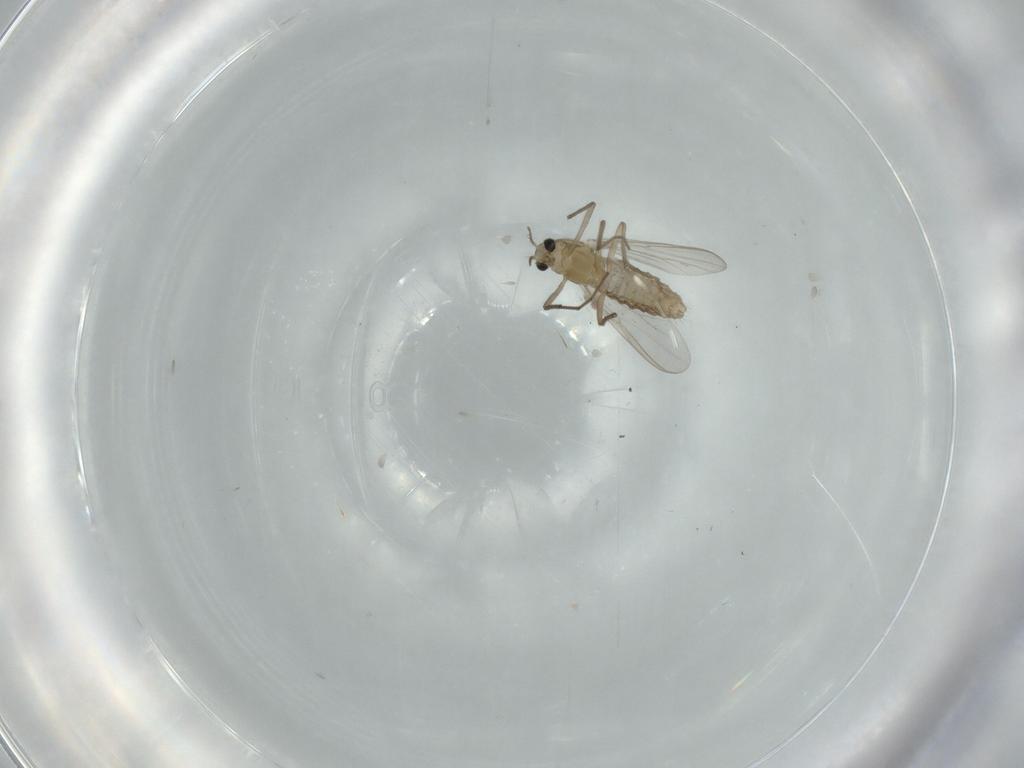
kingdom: Animalia
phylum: Arthropoda
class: Insecta
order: Diptera
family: Chironomidae
